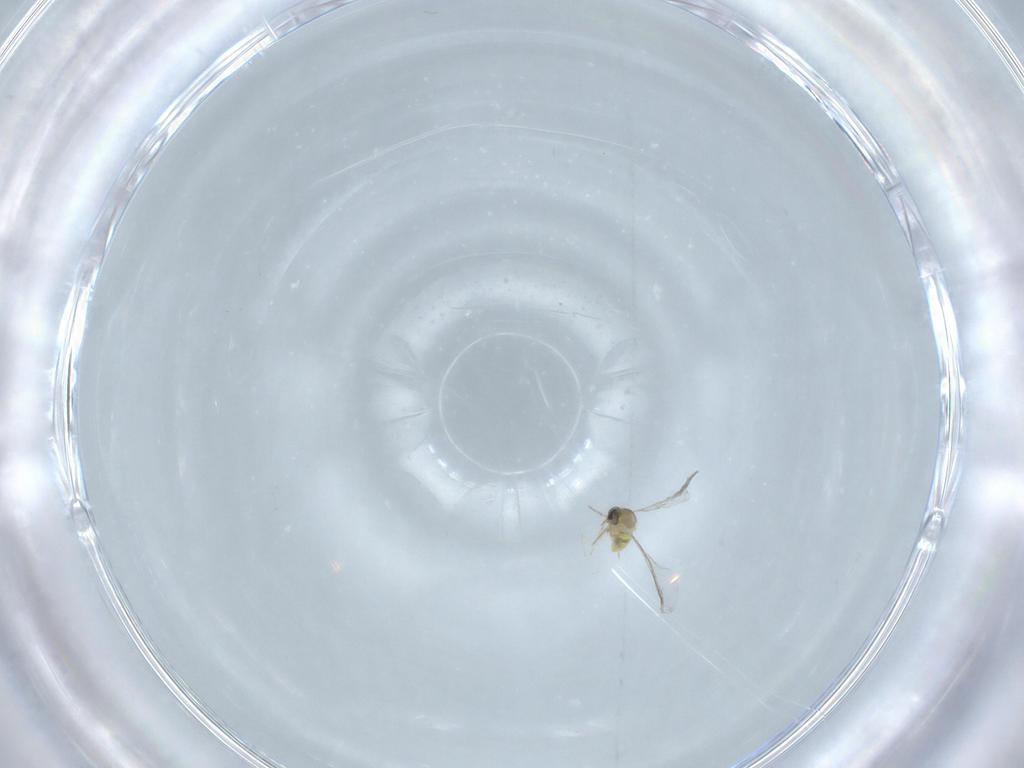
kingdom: Animalia
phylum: Arthropoda
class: Insecta
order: Diptera
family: Cecidomyiidae
